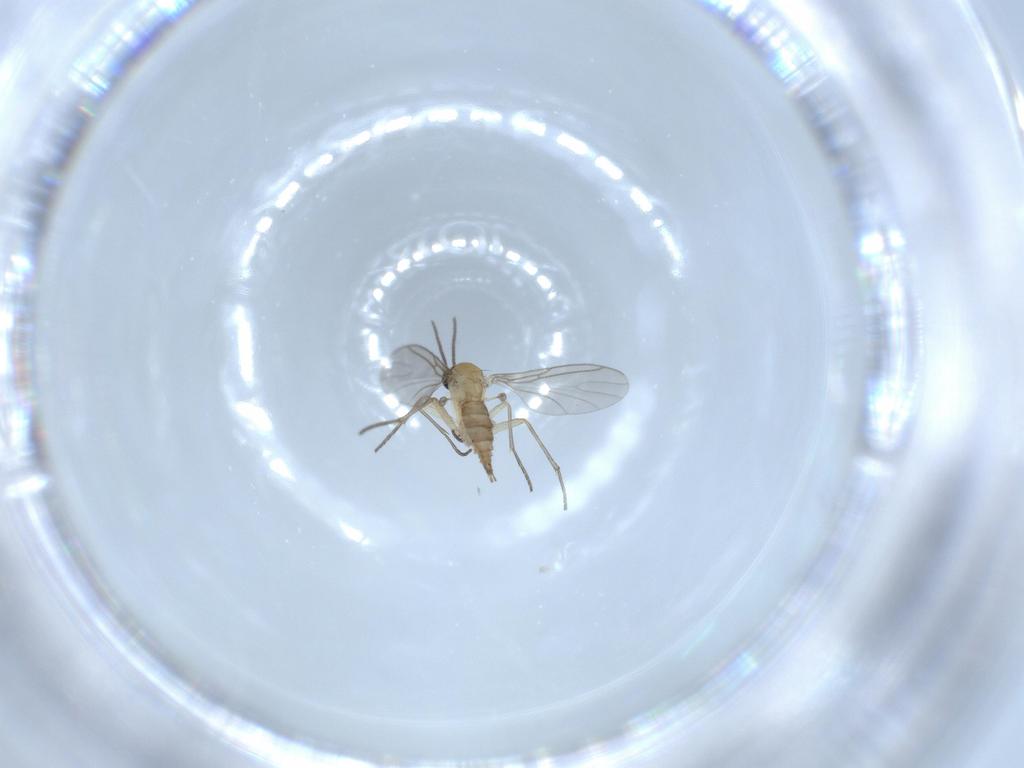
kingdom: Animalia
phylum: Arthropoda
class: Insecta
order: Diptera
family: Sciaridae
